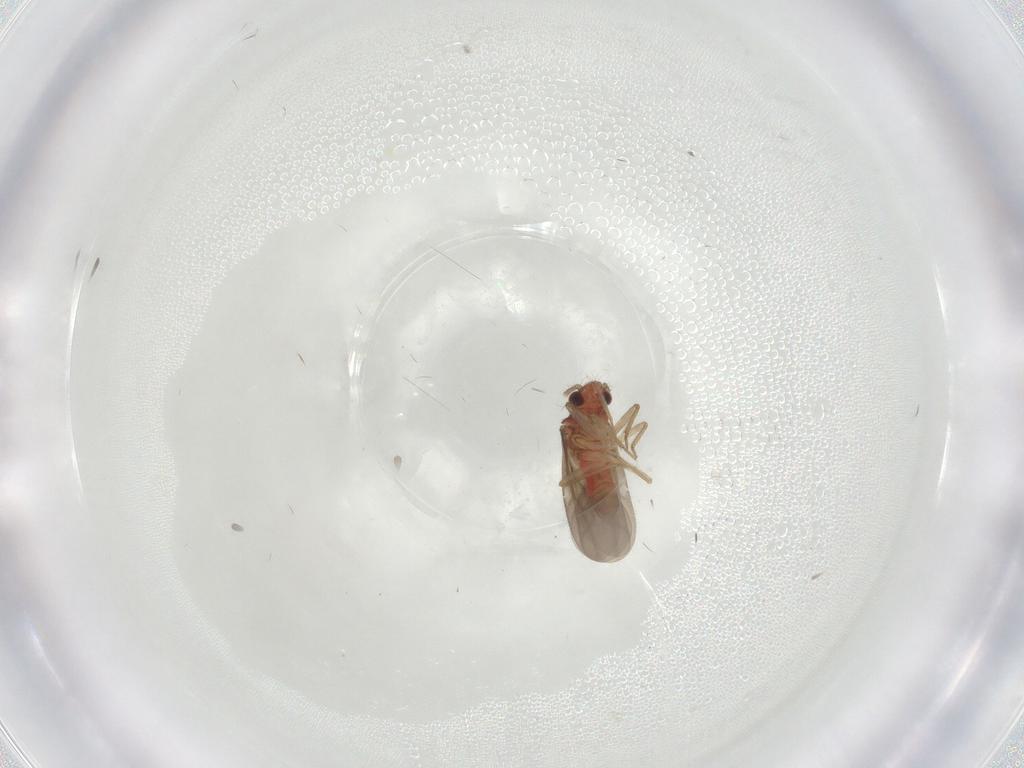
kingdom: Animalia
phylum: Arthropoda
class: Insecta
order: Hemiptera
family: Ceratocombidae
